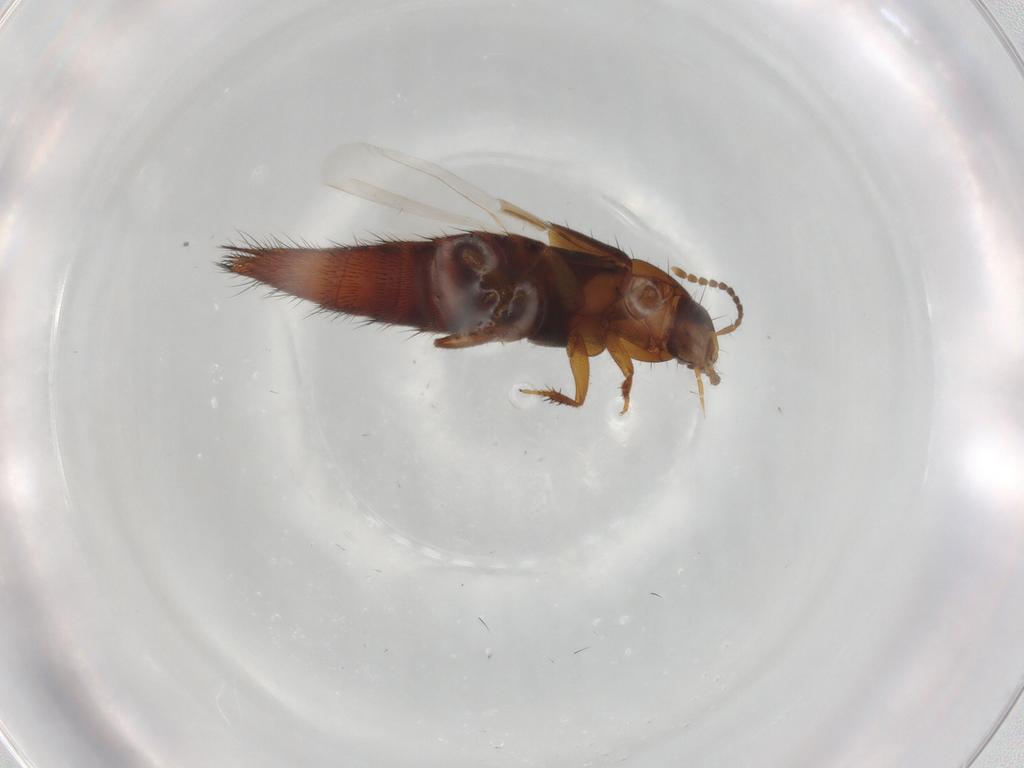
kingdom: Animalia
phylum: Arthropoda
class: Insecta
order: Coleoptera
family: Staphylinidae
